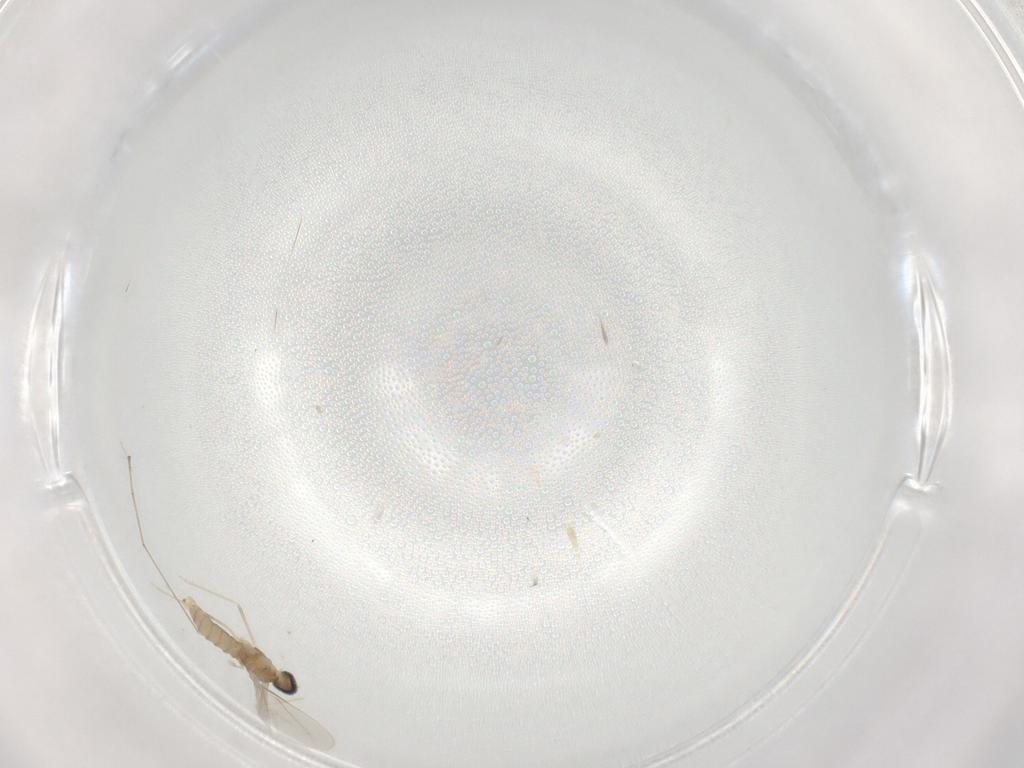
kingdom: Animalia
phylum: Arthropoda
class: Insecta
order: Diptera
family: Cecidomyiidae
